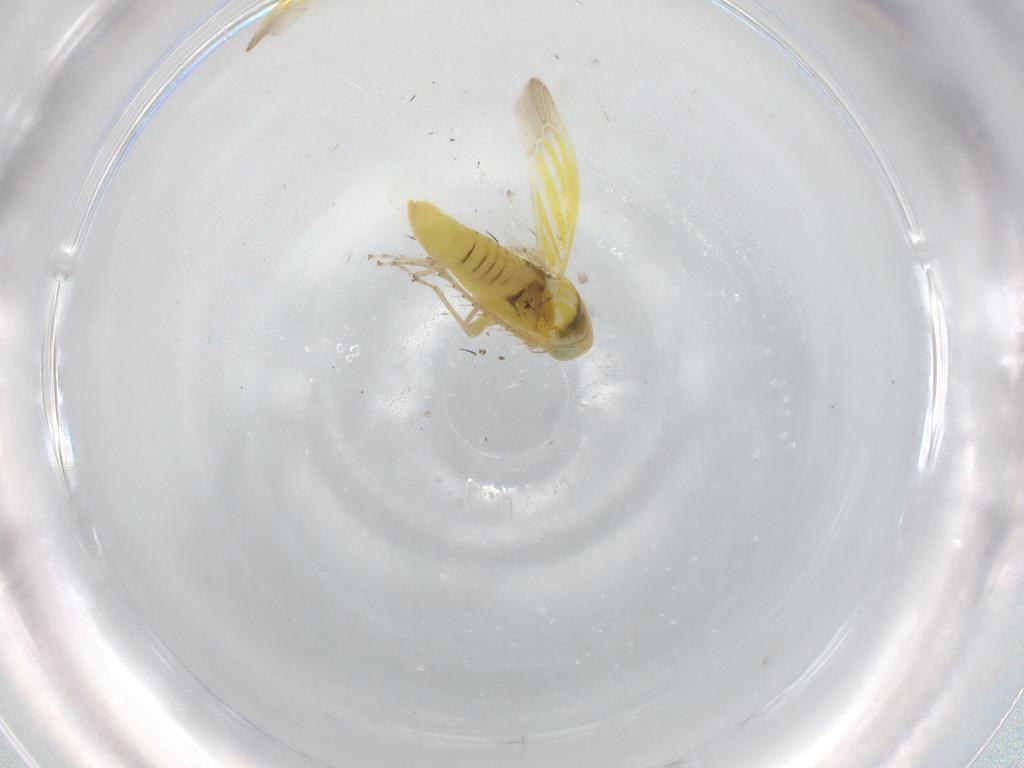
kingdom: Animalia
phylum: Arthropoda
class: Insecta
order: Hemiptera
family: Cicadellidae
